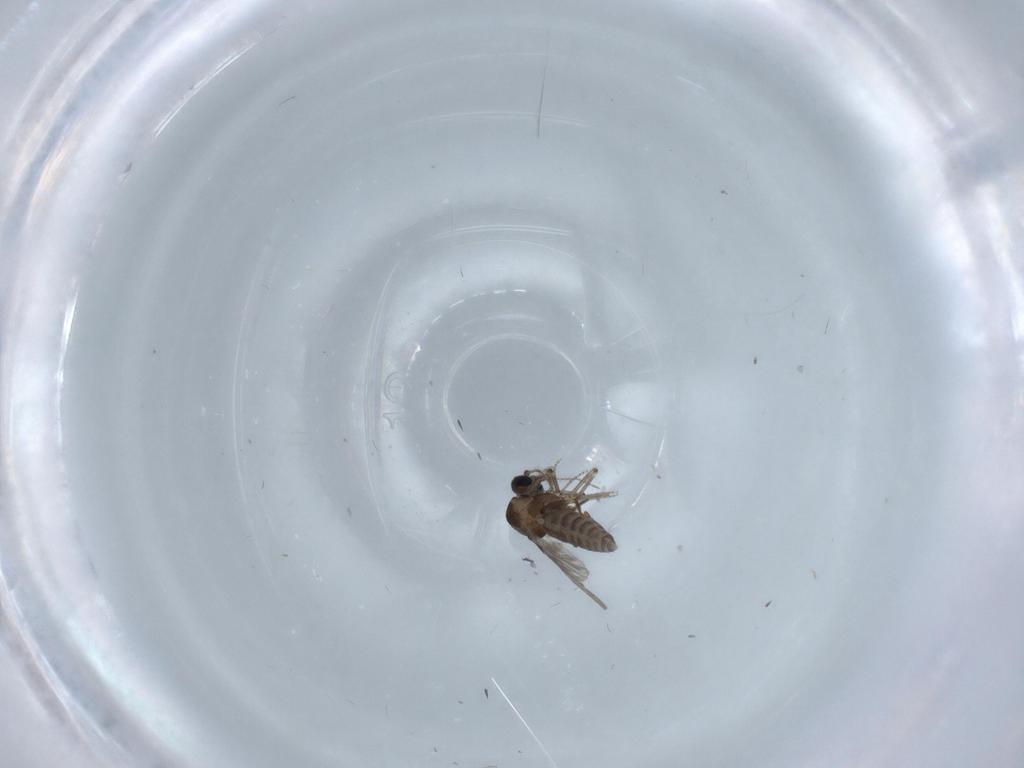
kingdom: Animalia
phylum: Arthropoda
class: Insecta
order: Diptera
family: Ceratopogonidae
